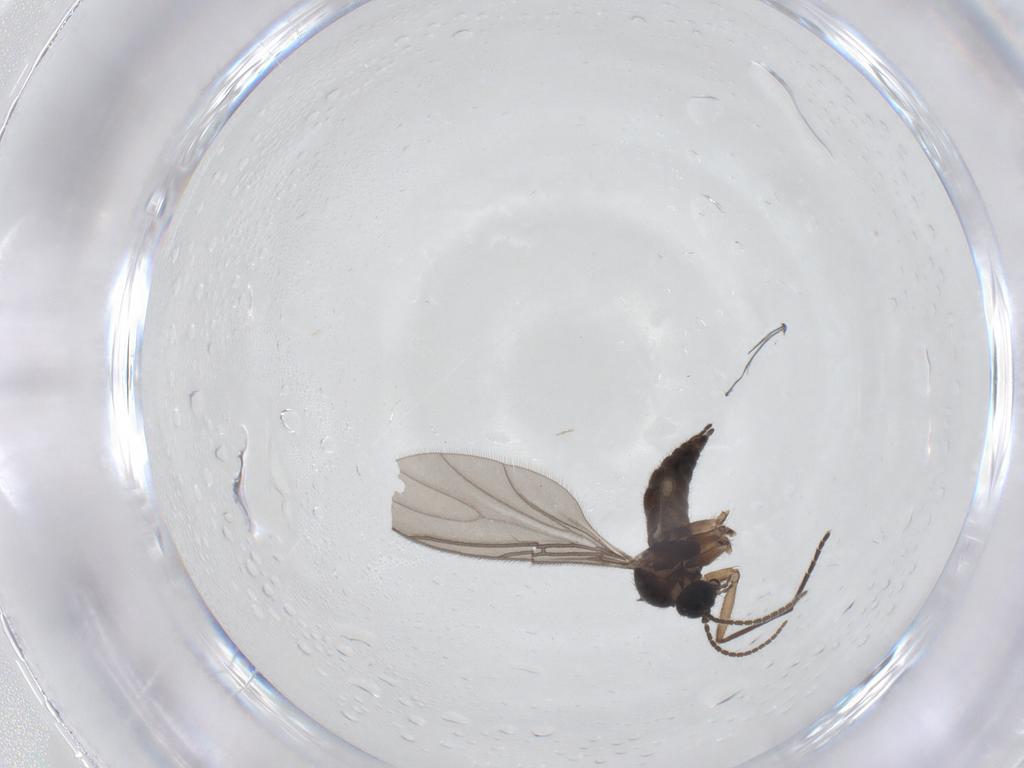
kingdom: Animalia
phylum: Arthropoda
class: Insecta
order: Diptera
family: Sciaridae
